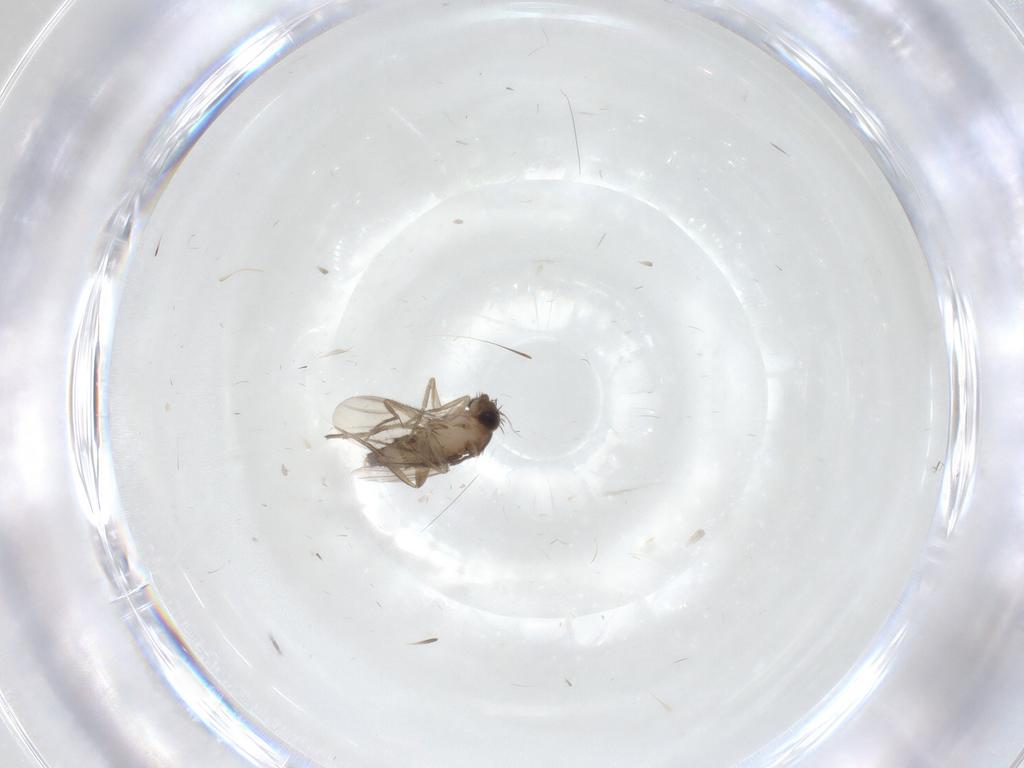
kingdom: Animalia
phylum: Arthropoda
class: Insecta
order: Diptera
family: Phoridae
